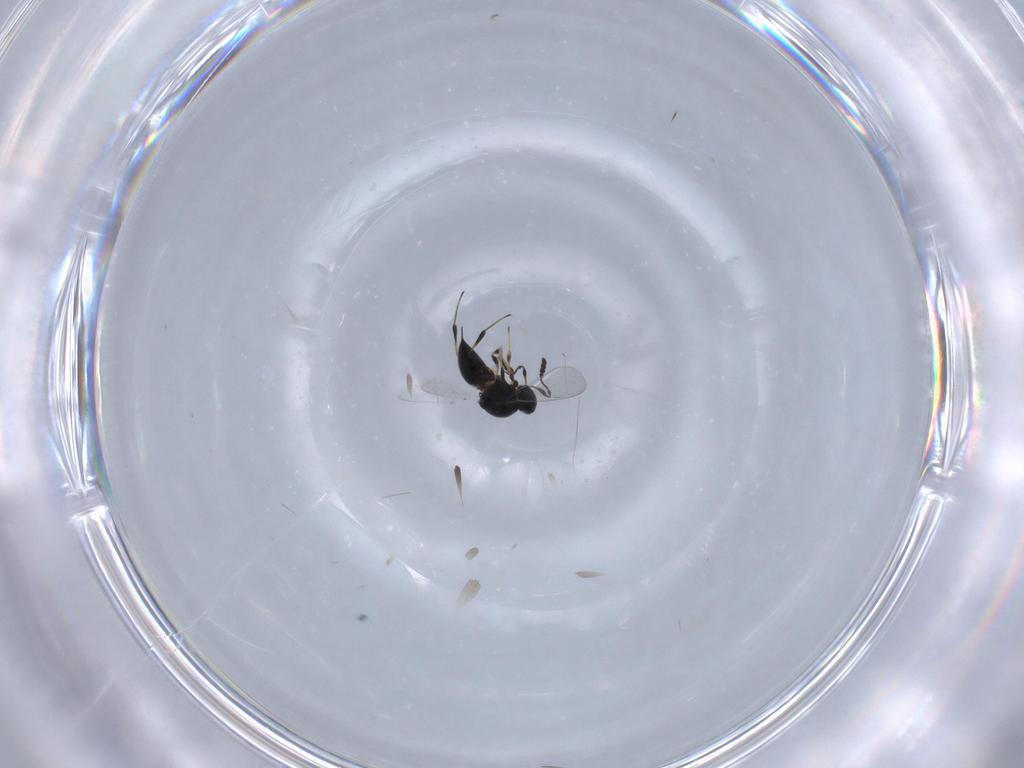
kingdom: Animalia
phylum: Arthropoda
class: Insecta
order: Hymenoptera
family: Platygastridae
